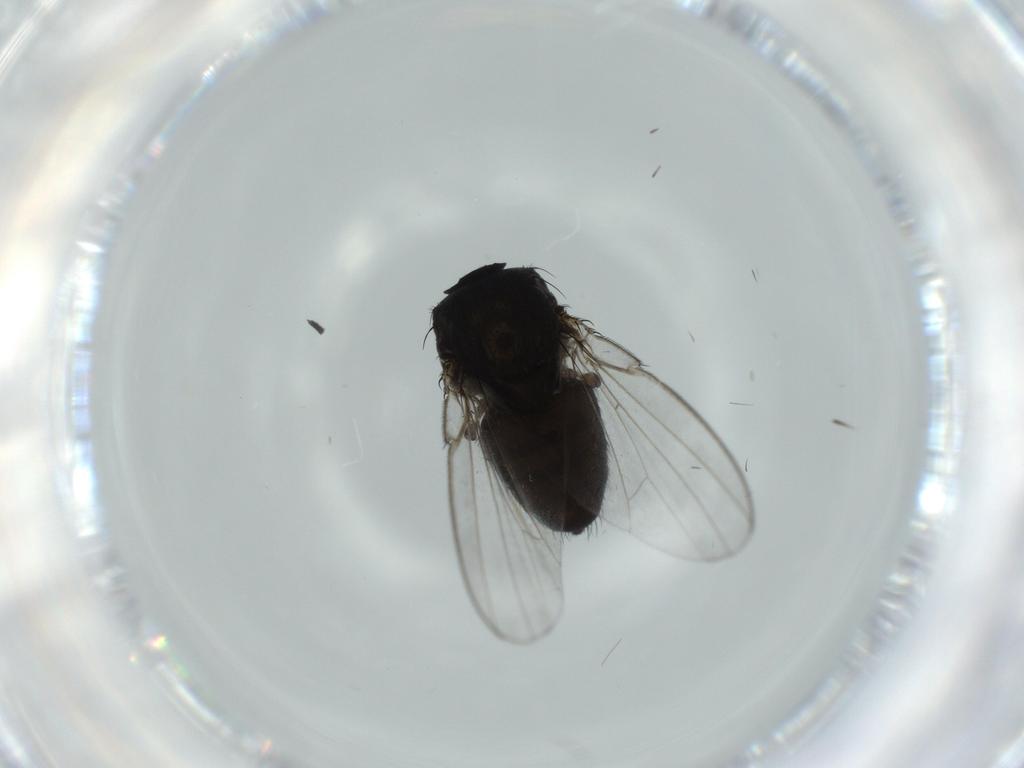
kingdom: Animalia
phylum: Arthropoda
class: Insecta
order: Diptera
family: Milichiidae
